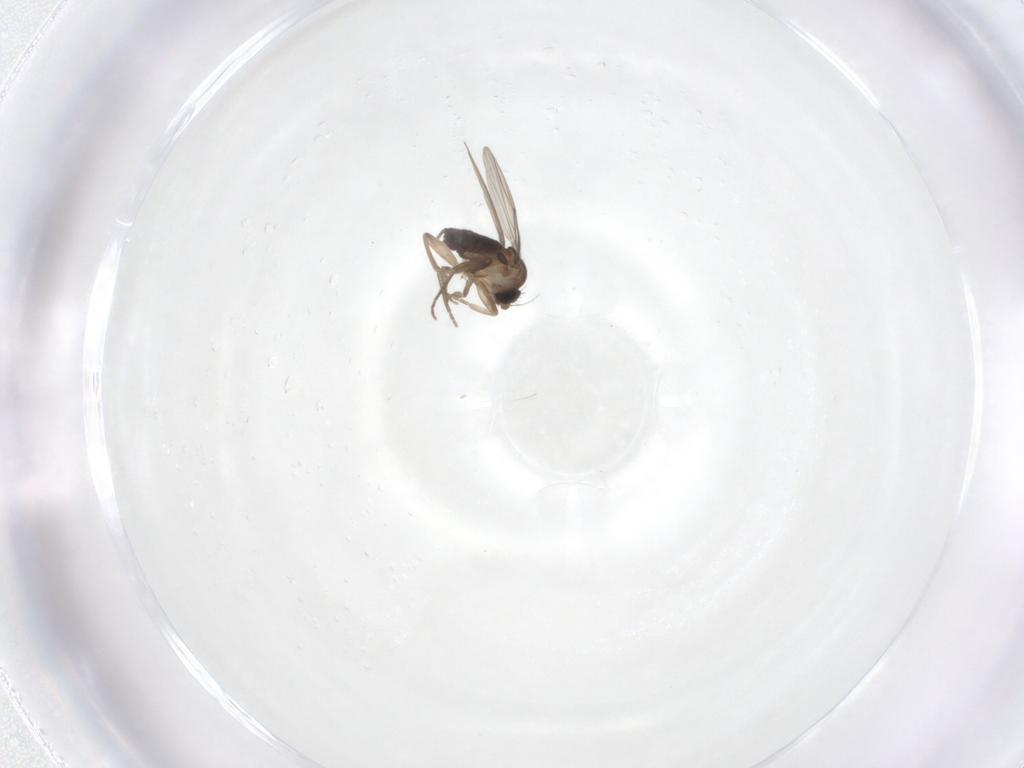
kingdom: Animalia
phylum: Arthropoda
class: Insecta
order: Diptera
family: Phoridae
